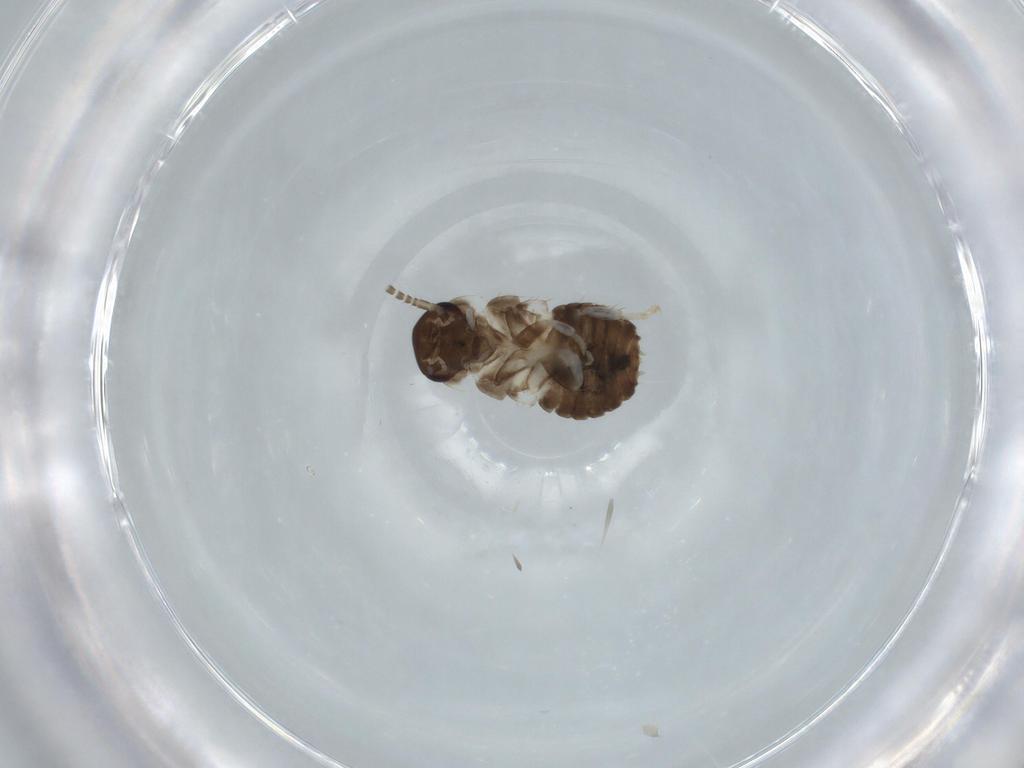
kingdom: Animalia
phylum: Arthropoda
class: Insecta
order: Blattodea
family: Ectobiidae
